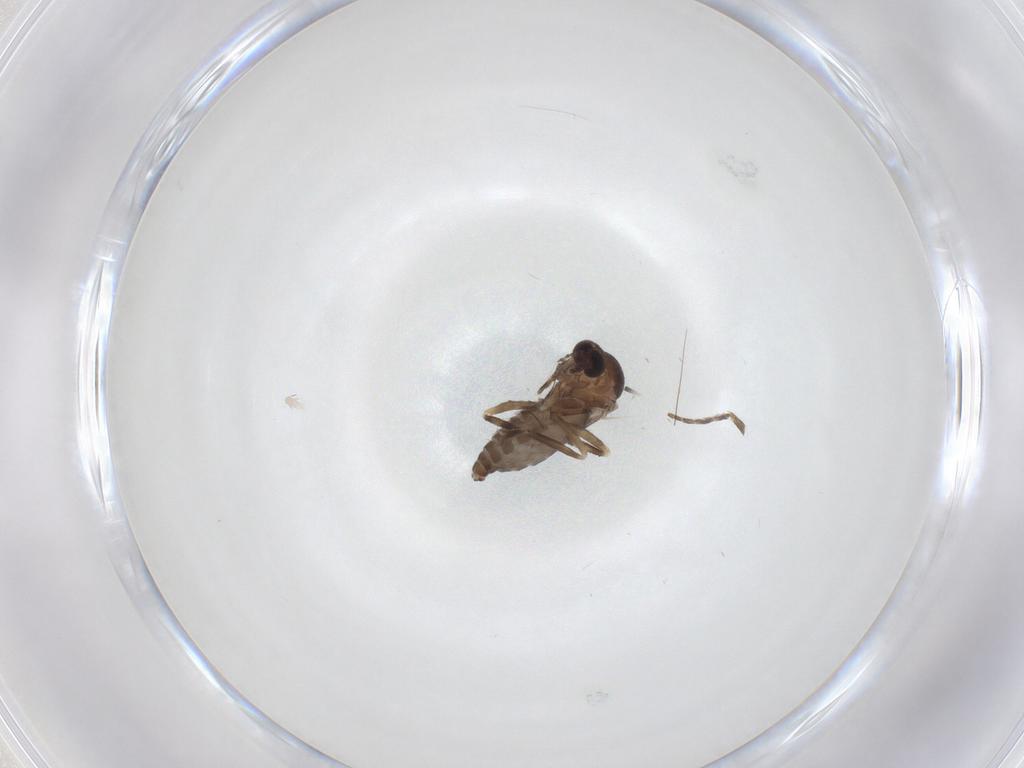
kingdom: Animalia
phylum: Arthropoda
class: Insecta
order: Diptera
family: Ceratopogonidae
